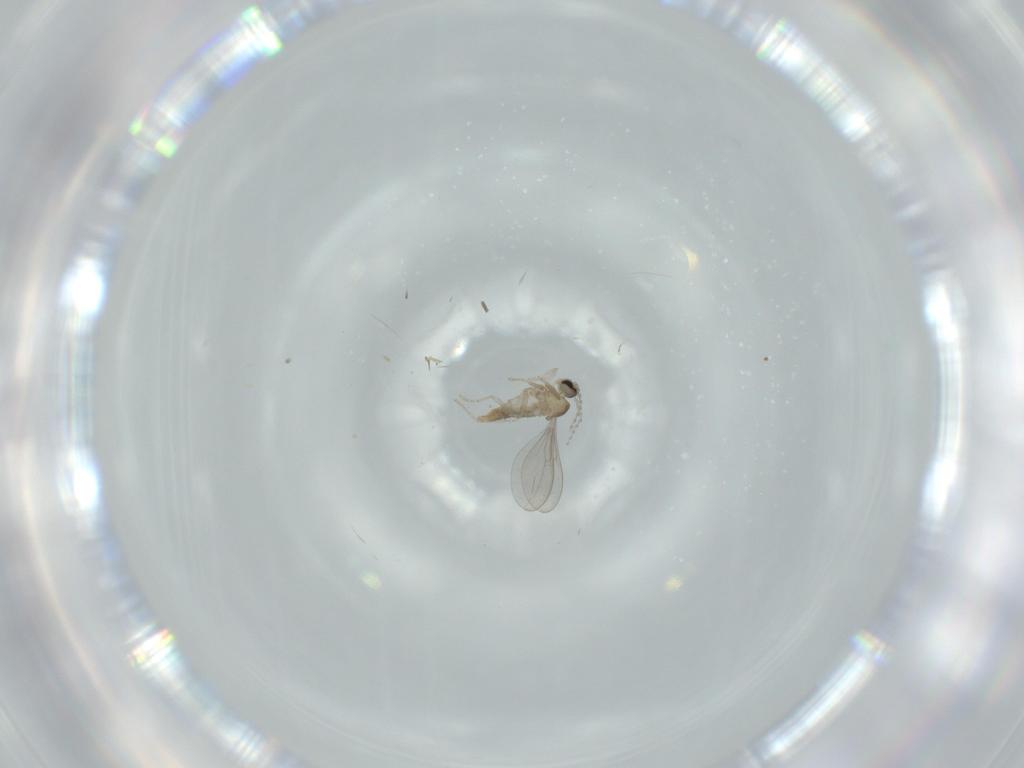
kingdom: Animalia
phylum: Arthropoda
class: Insecta
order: Diptera
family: Cecidomyiidae
